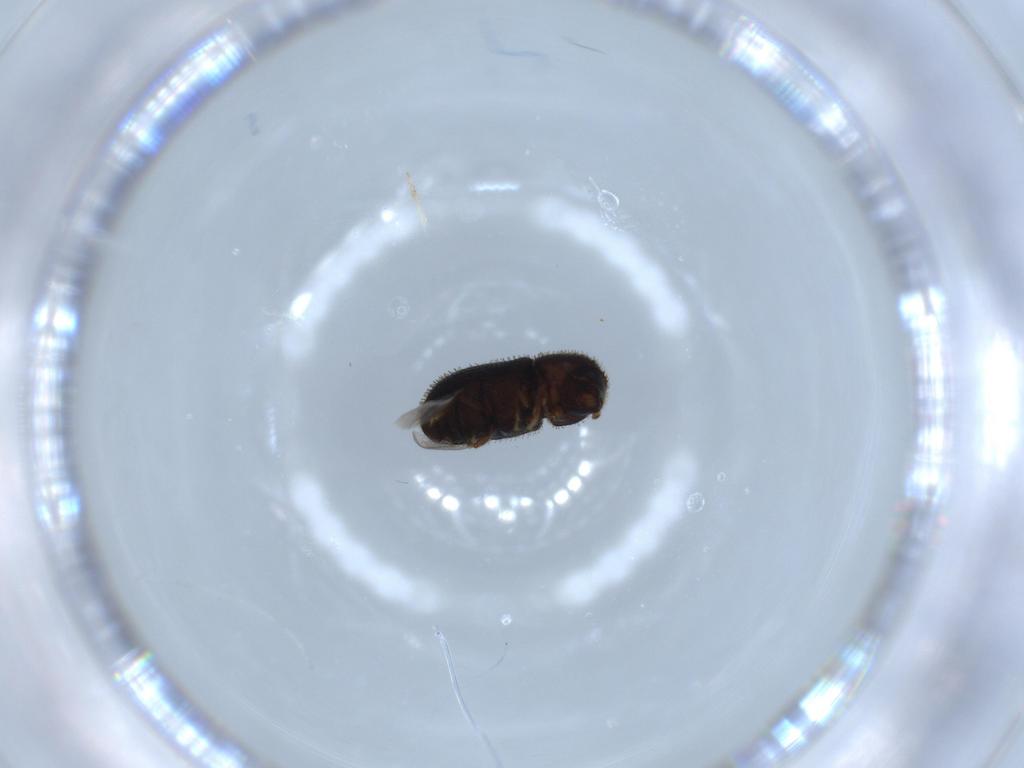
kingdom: Animalia
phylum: Arthropoda
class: Insecta
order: Coleoptera
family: Curculionidae
